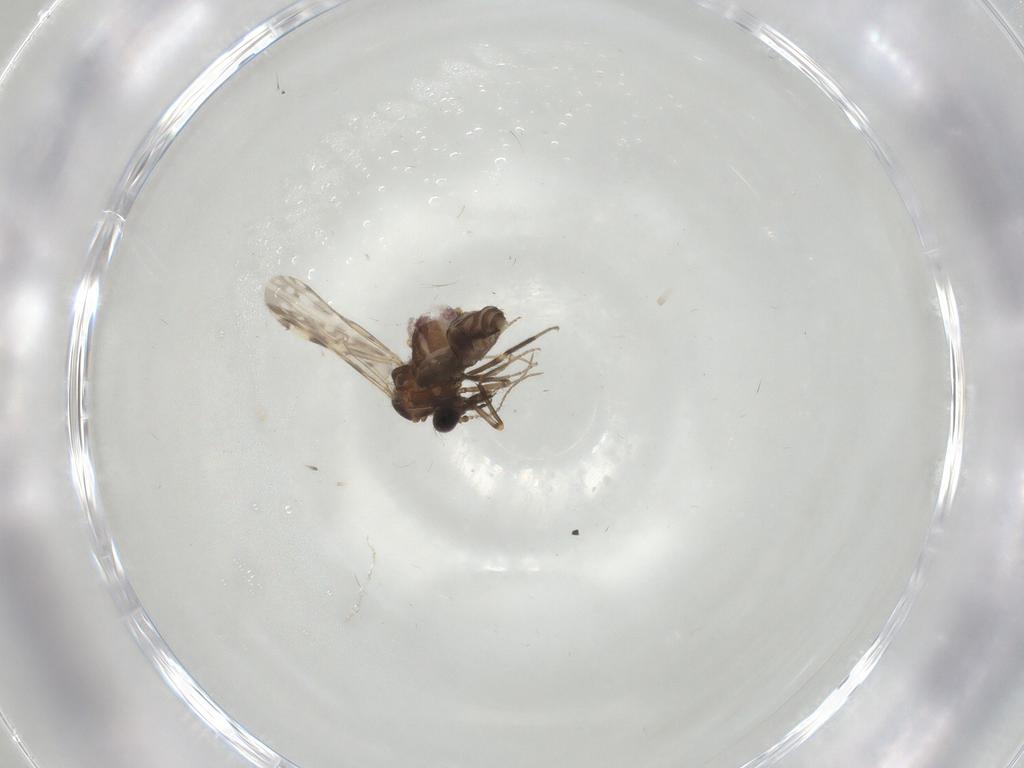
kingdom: Animalia
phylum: Arthropoda
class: Insecta
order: Diptera
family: Ceratopogonidae
